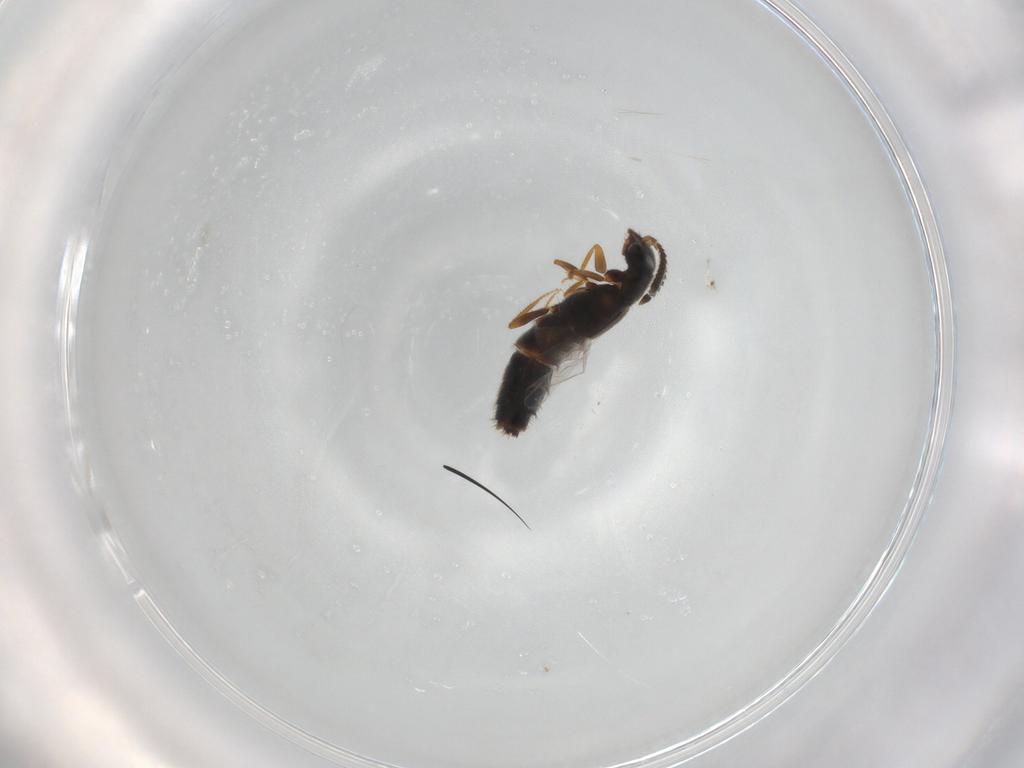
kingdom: Animalia
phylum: Arthropoda
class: Insecta
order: Coleoptera
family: Staphylinidae
